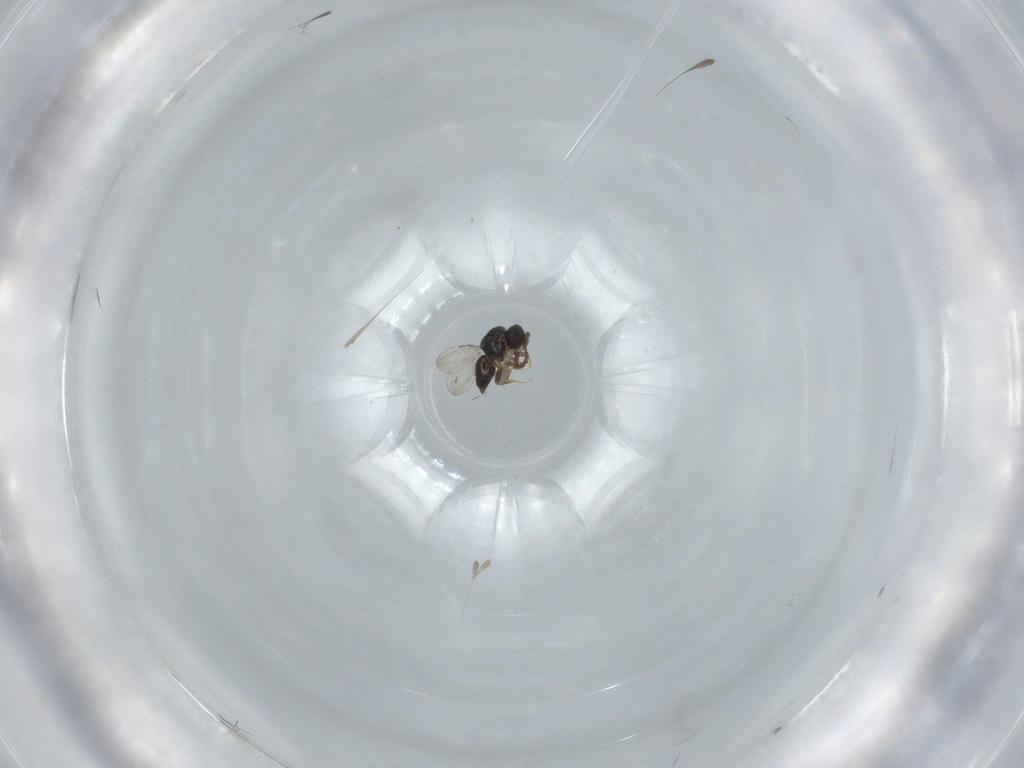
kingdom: Animalia
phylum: Arthropoda
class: Insecta
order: Hymenoptera
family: Ceraphronidae
